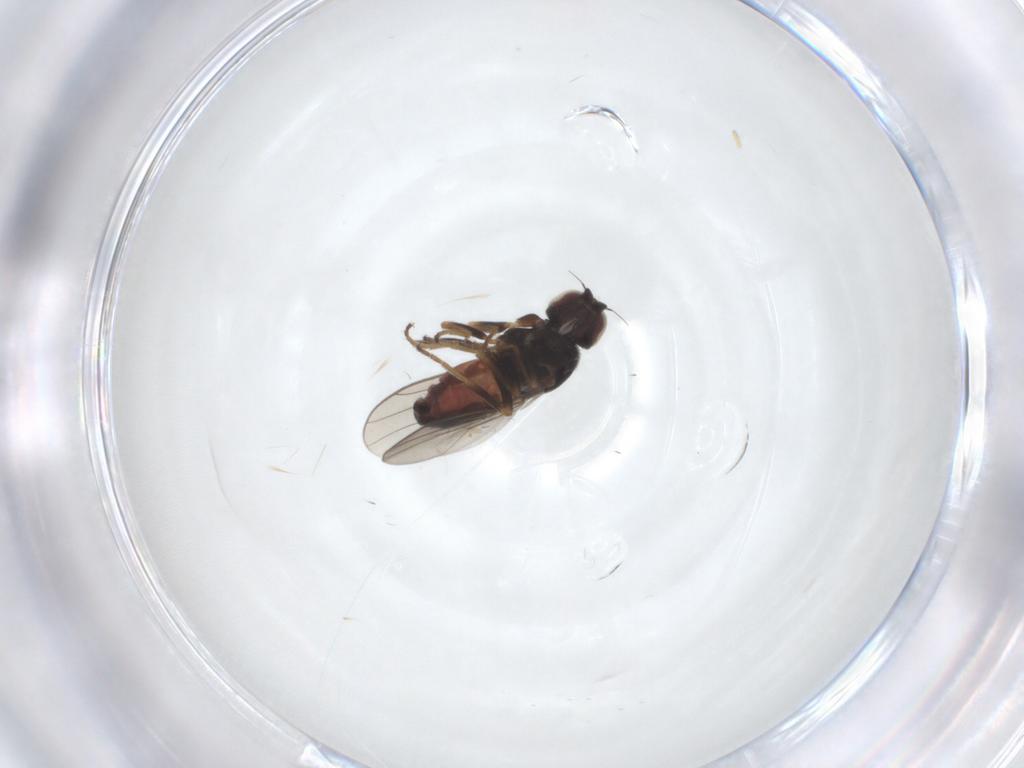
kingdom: Animalia
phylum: Arthropoda
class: Insecta
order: Diptera
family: Chloropidae
